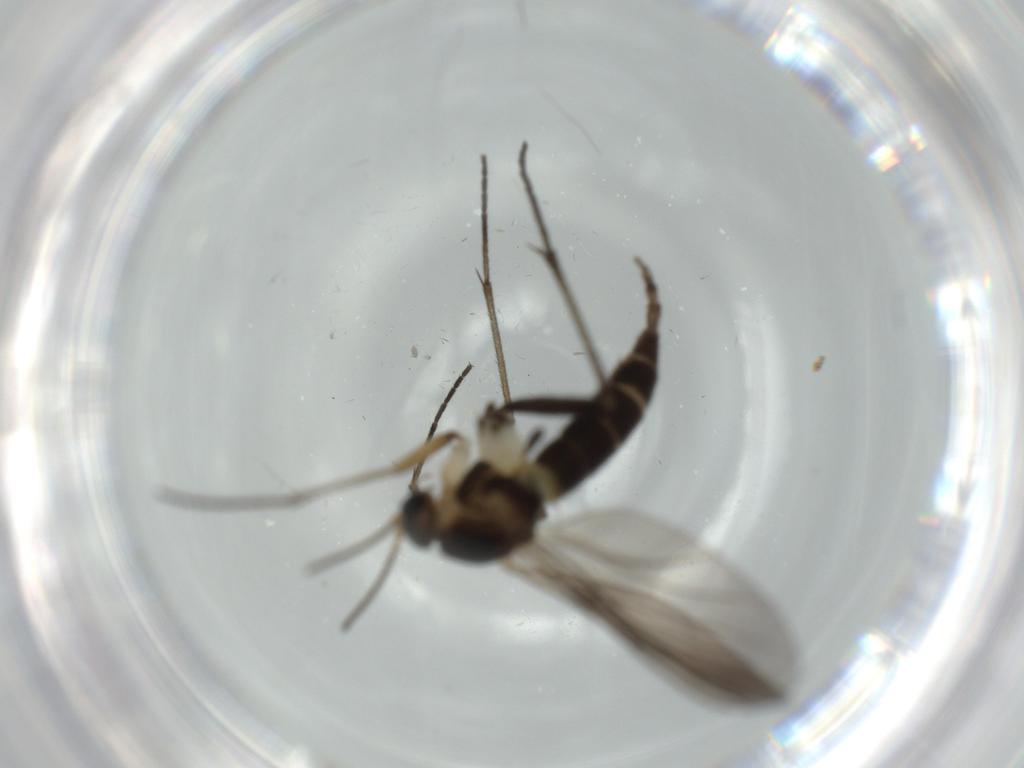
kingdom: Animalia
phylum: Arthropoda
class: Insecta
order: Diptera
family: Sciaridae
